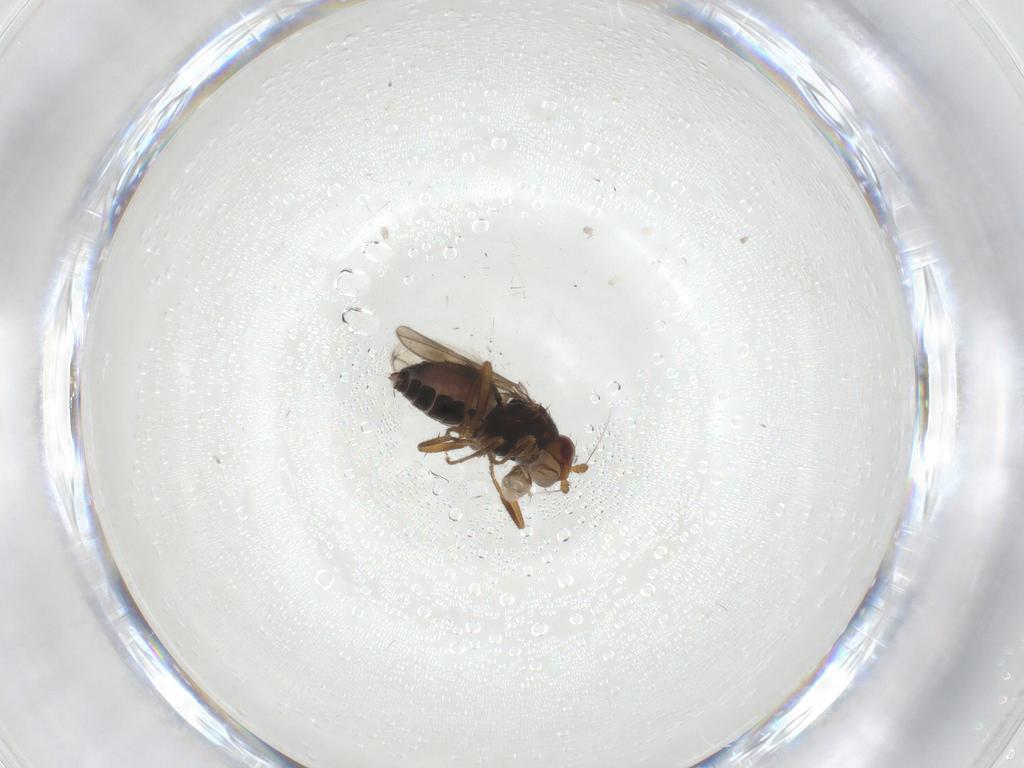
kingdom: Animalia
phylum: Arthropoda
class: Insecta
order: Diptera
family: Sphaeroceridae
